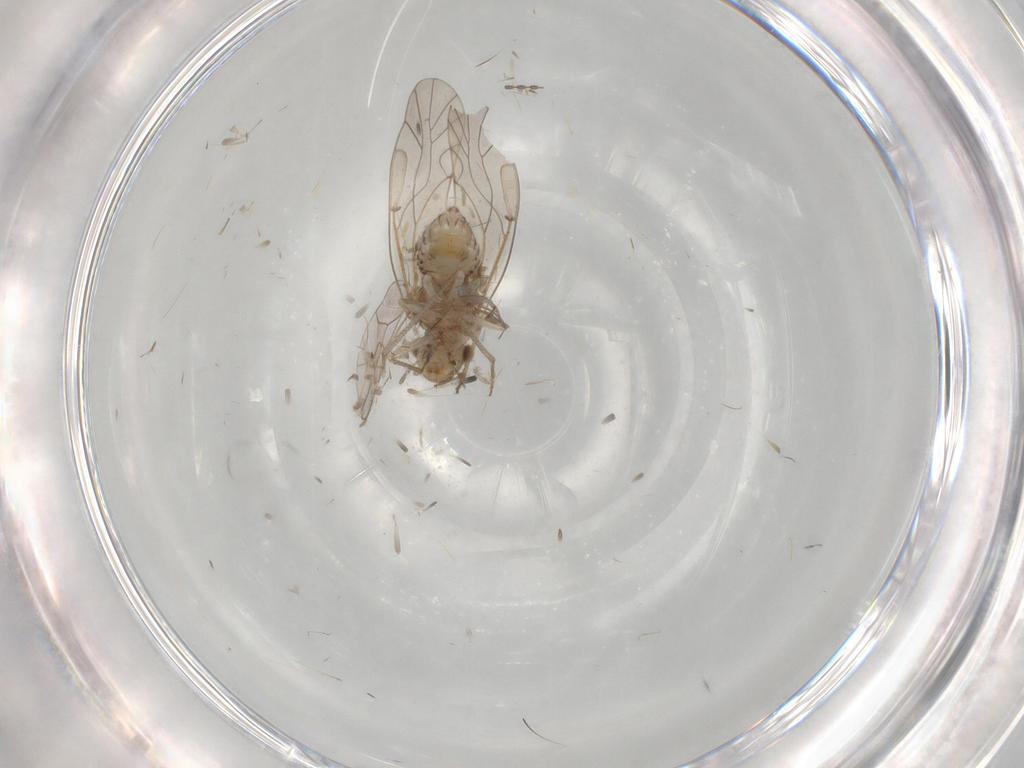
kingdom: Animalia
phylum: Arthropoda
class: Insecta
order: Psocodea
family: Lachesillidae
